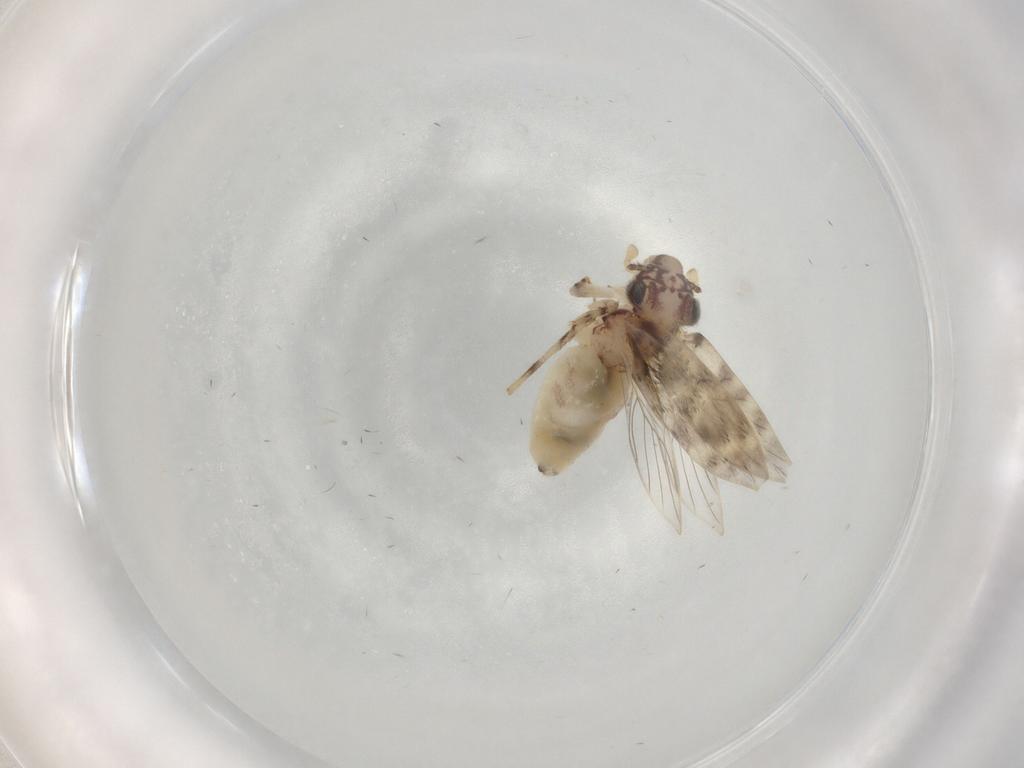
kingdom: Animalia
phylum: Arthropoda
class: Insecta
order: Psocodea
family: Lepidopsocidae
